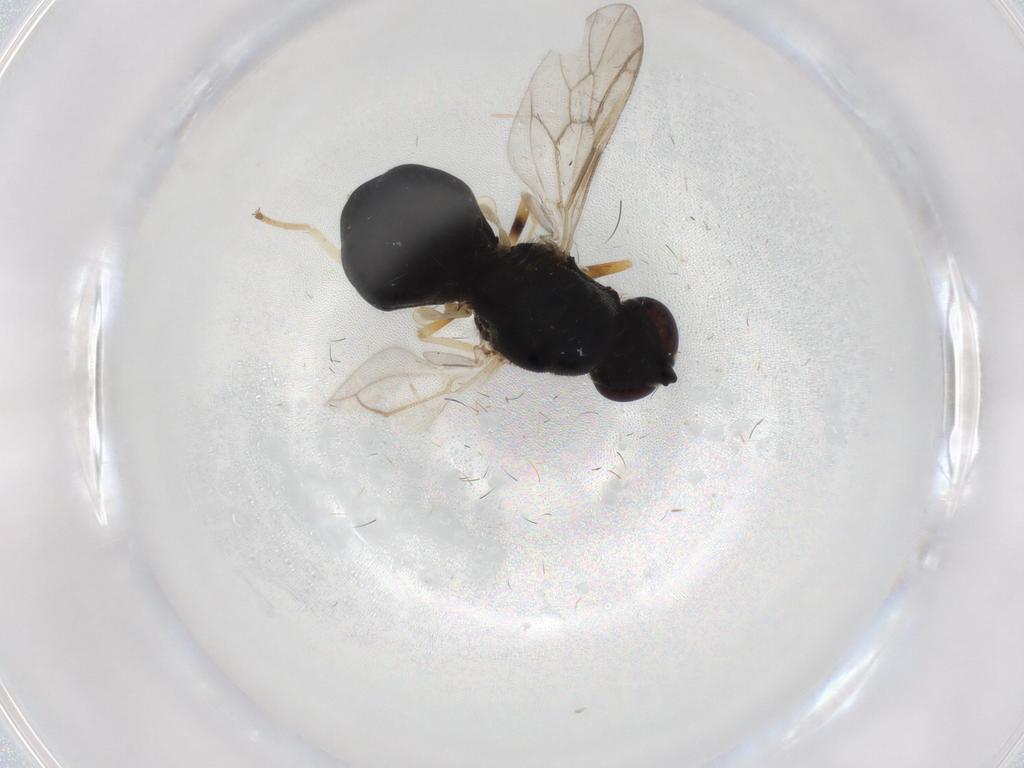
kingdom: Animalia
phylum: Arthropoda
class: Insecta
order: Diptera
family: Stratiomyidae
